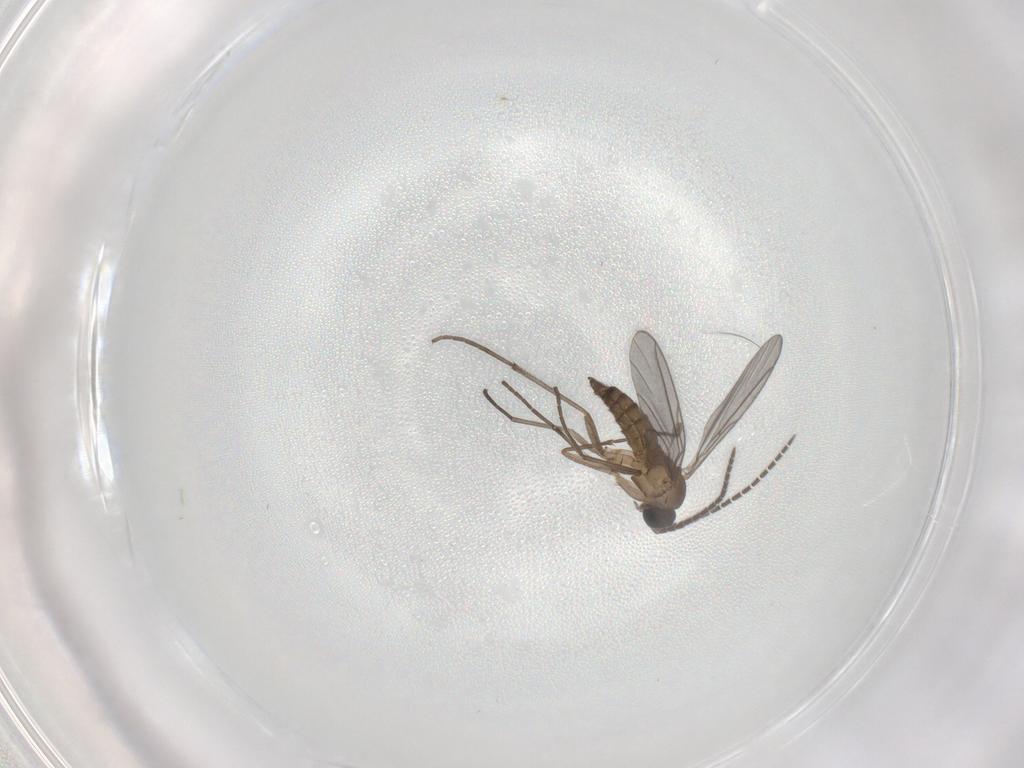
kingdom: Animalia
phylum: Arthropoda
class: Insecta
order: Diptera
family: Sciaridae
